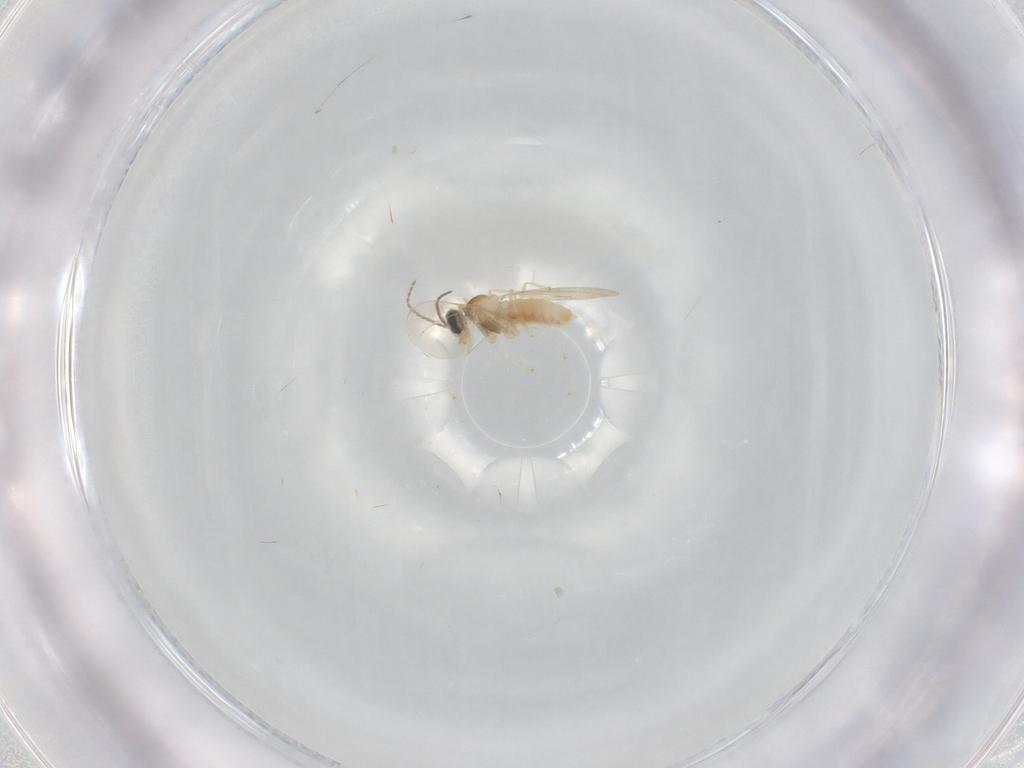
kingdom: Animalia
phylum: Arthropoda
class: Insecta
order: Diptera
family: Cecidomyiidae
